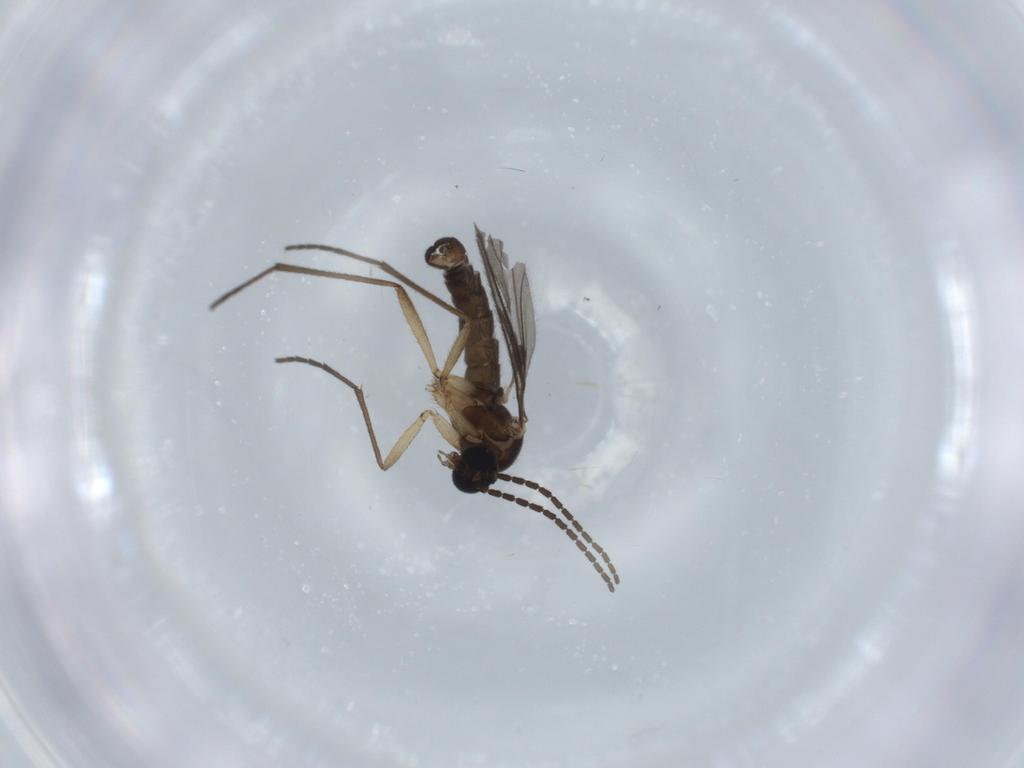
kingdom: Animalia
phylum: Arthropoda
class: Insecta
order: Diptera
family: Sciaridae
